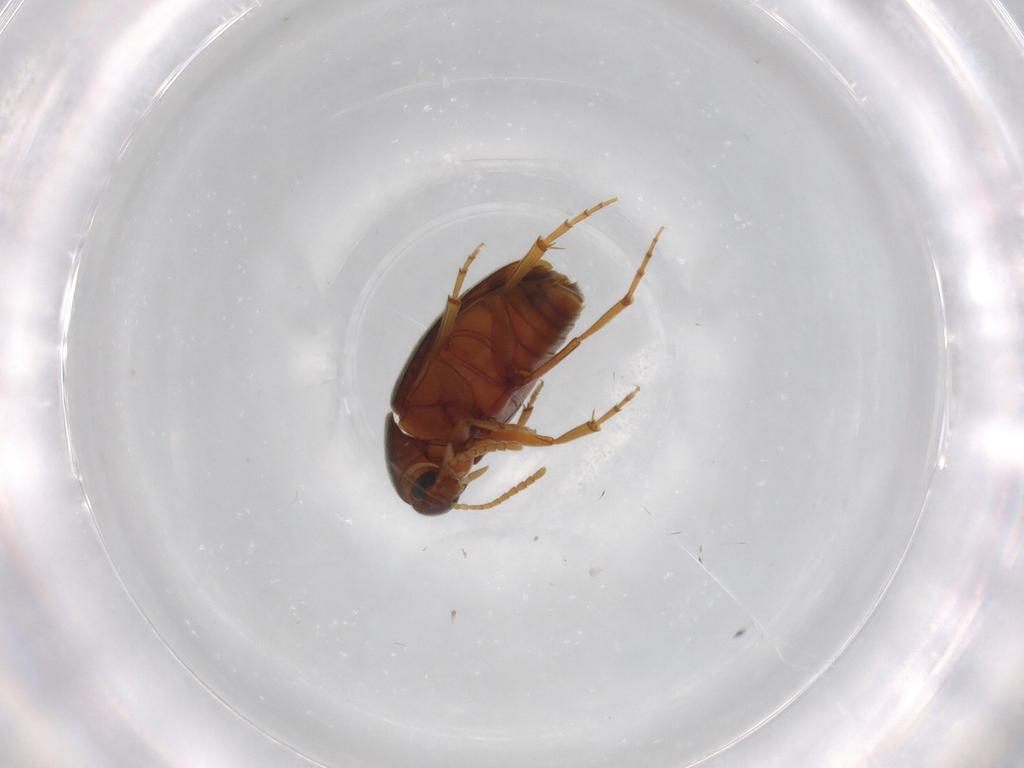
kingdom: Animalia
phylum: Arthropoda
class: Insecta
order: Coleoptera
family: Scraptiidae
